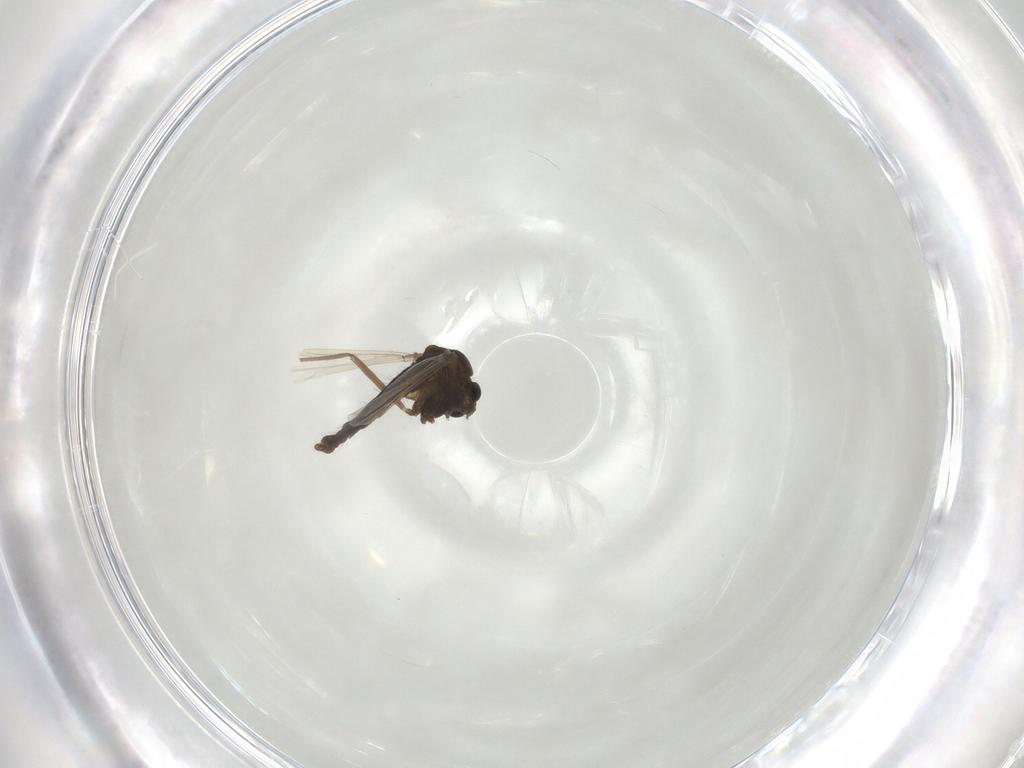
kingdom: Animalia
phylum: Arthropoda
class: Insecta
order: Diptera
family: Chironomidae
